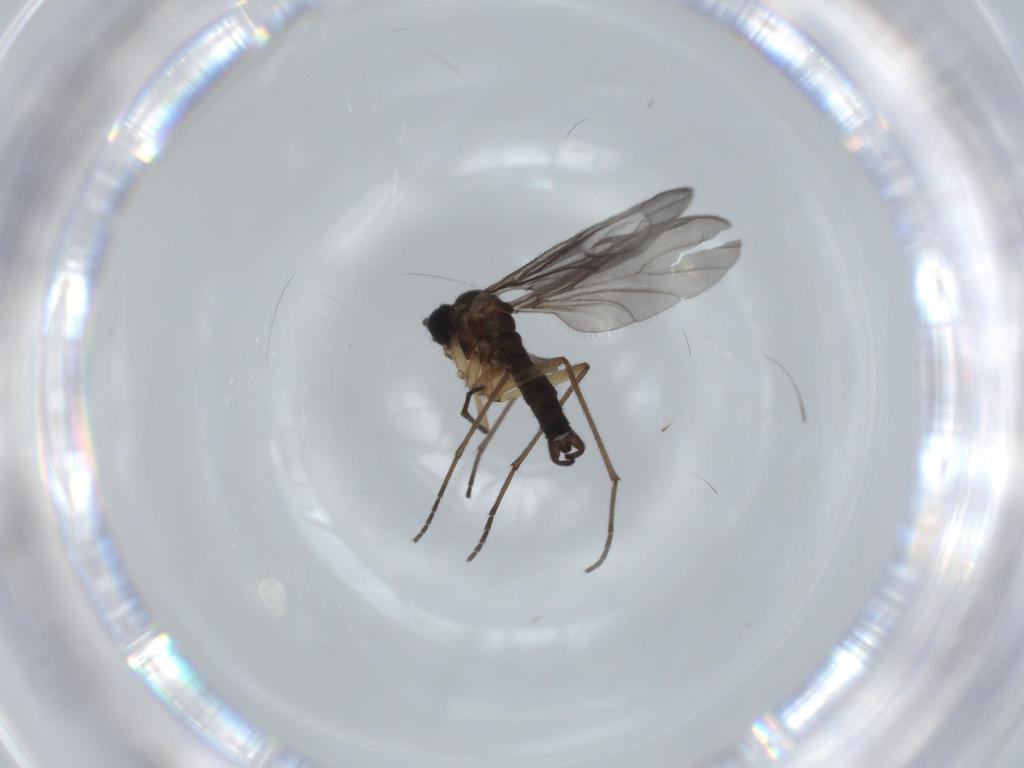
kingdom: Animalia
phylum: Arthropoda
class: Insecta
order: Diptera
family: Sciaridae
